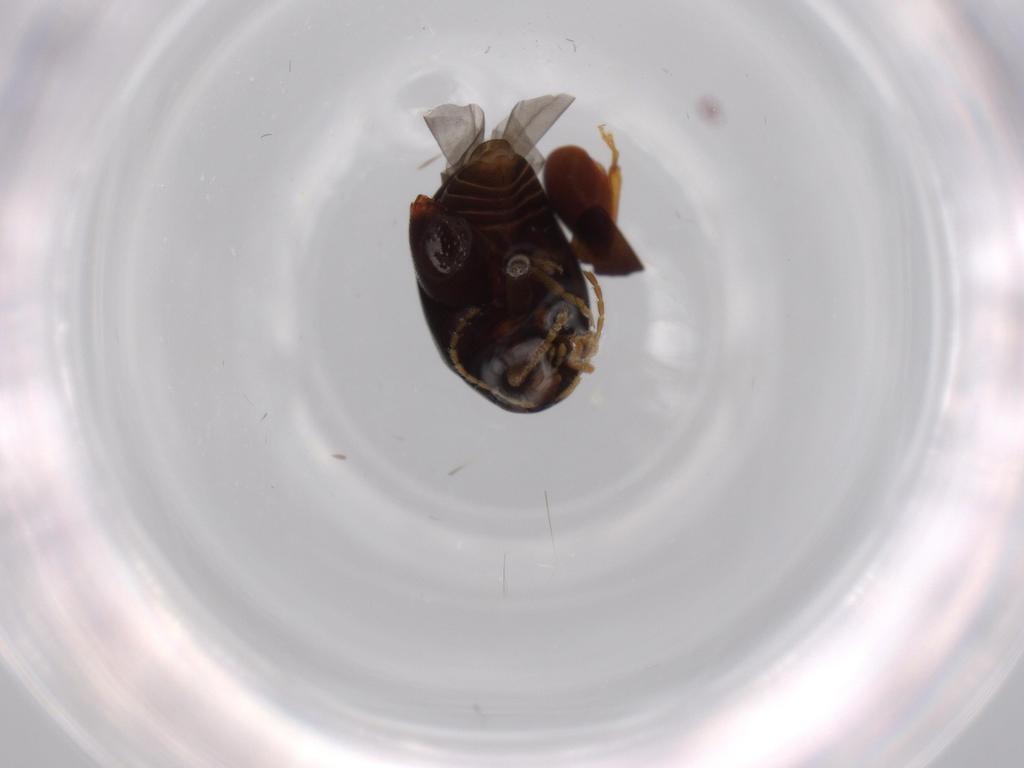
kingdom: Animalia
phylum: Arthropoda
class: Insecta
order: Coleoptera
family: Chrysomelidae
